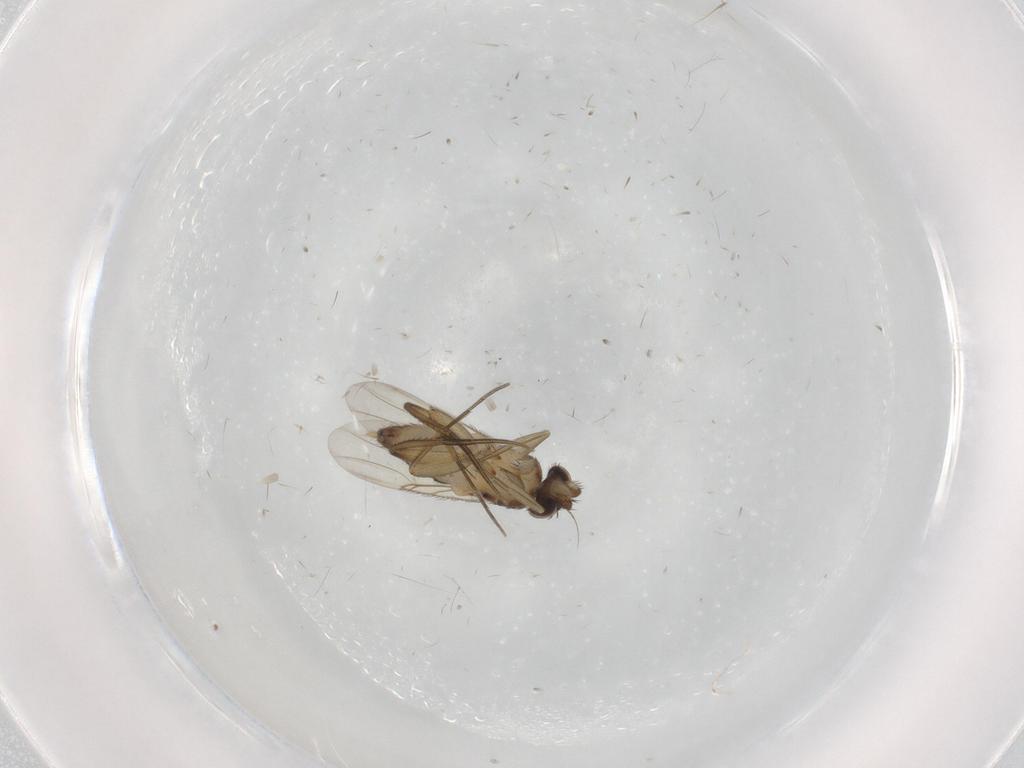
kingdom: Animalia
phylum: Arthropoda
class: Insecta
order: Diptera
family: Phoridae
